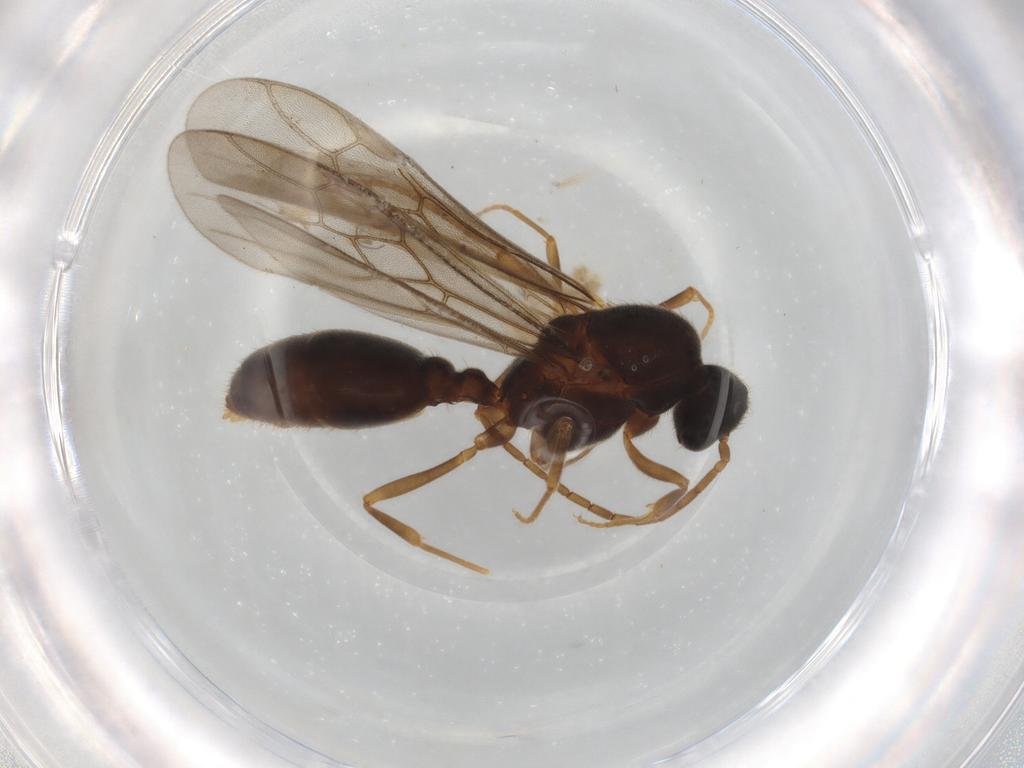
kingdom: Animalia
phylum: Arthropoda
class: Insecta
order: Hymenoptera
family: Formicidae
